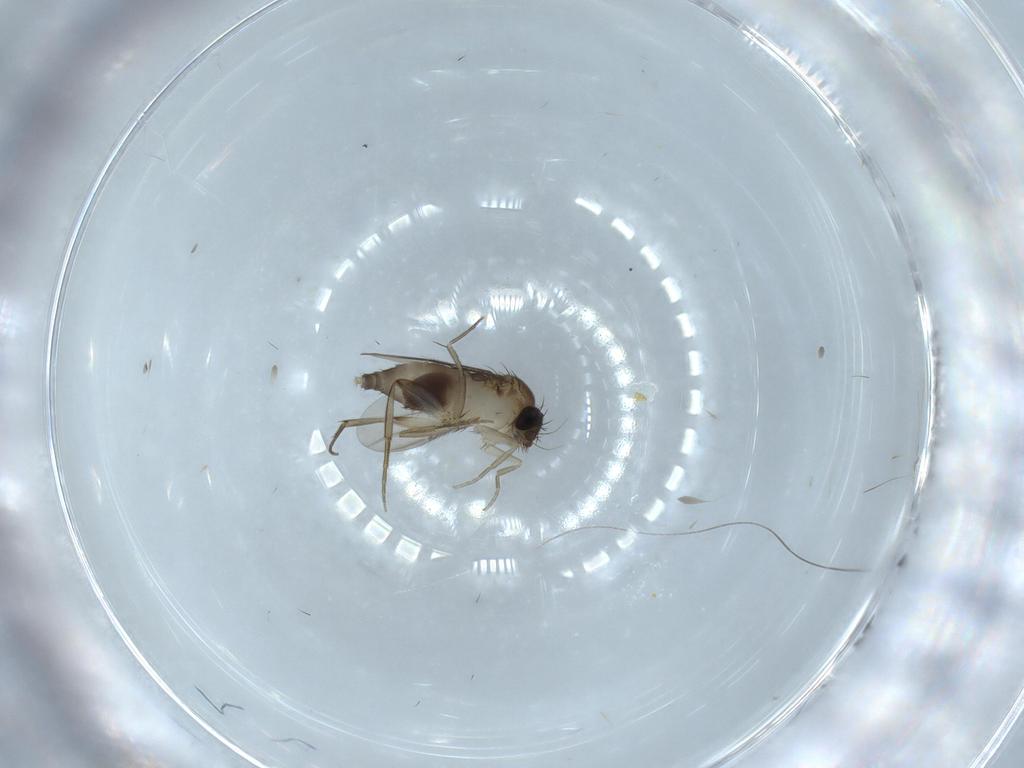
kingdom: Animalia
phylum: Arthropoda
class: Insecta
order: Diptera
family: Phoridae
